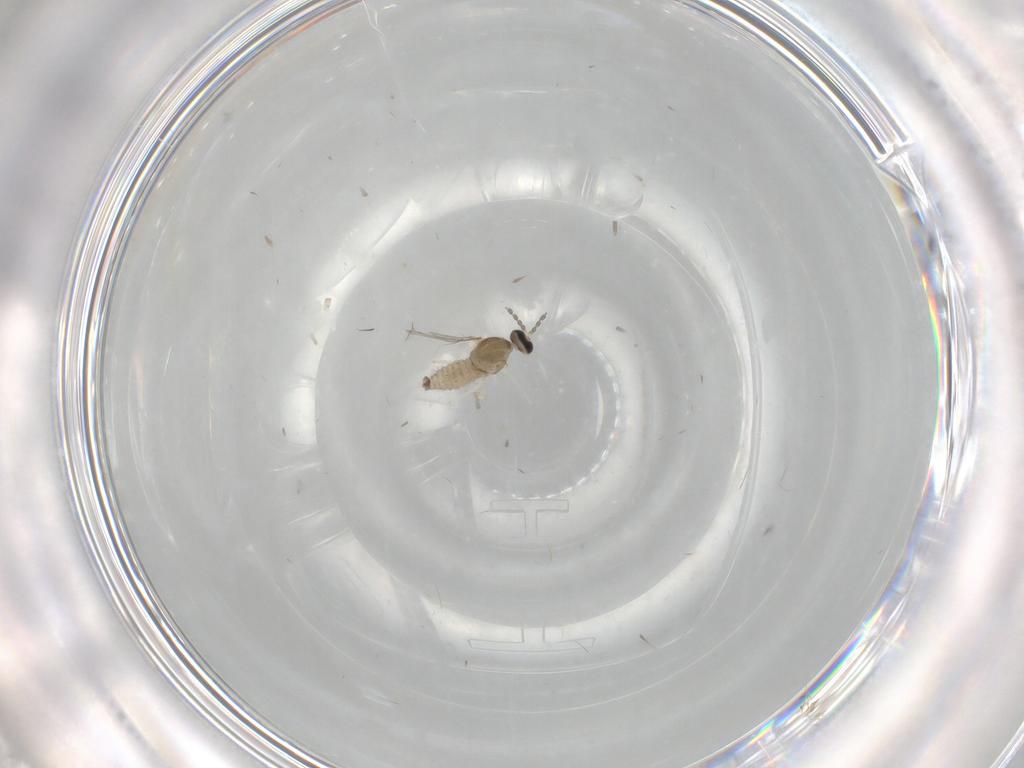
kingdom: Animalia
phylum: Arthropoda
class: Insecta
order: Diptera
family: Cecidomyiidae
